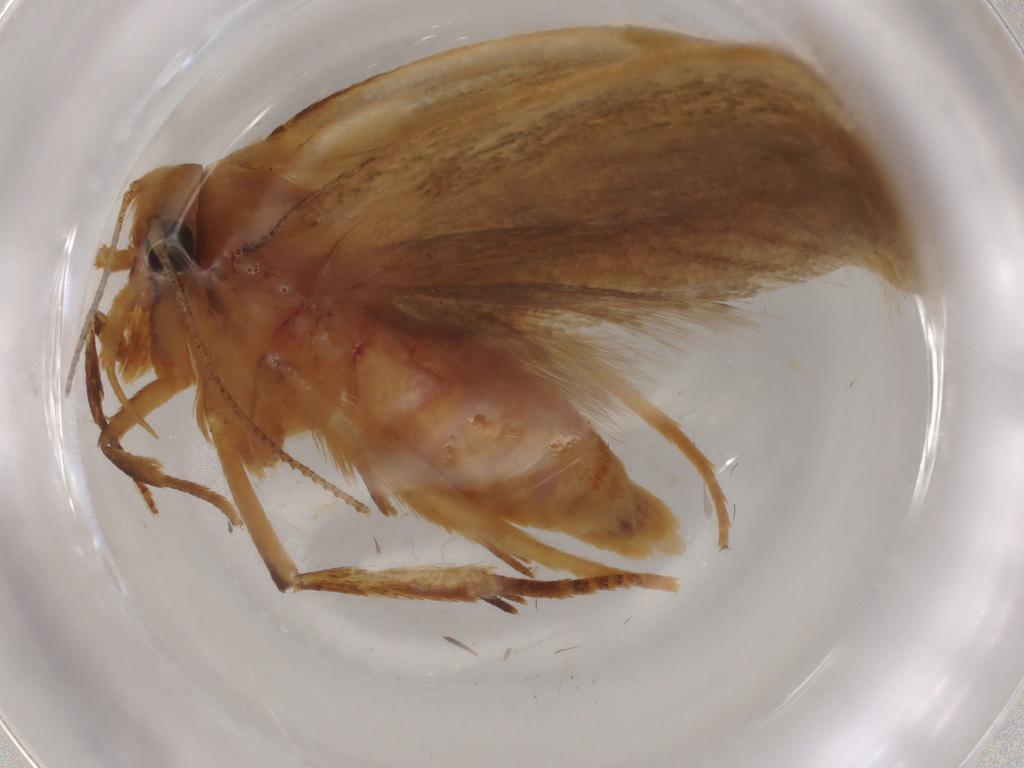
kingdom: Animalia
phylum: Arthropoda
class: Insecta
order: Lepidoptera
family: Oecophoridae
